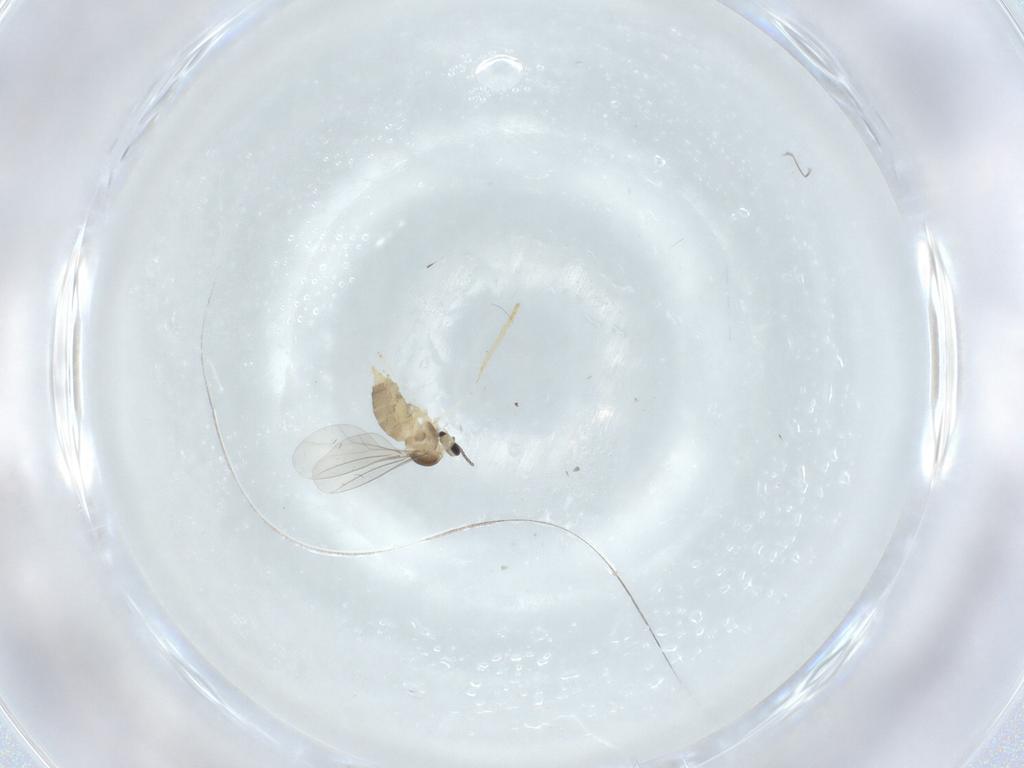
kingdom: Animalia
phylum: Arthropoda
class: Insecta
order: Diptera
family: Cecidomyiidae
